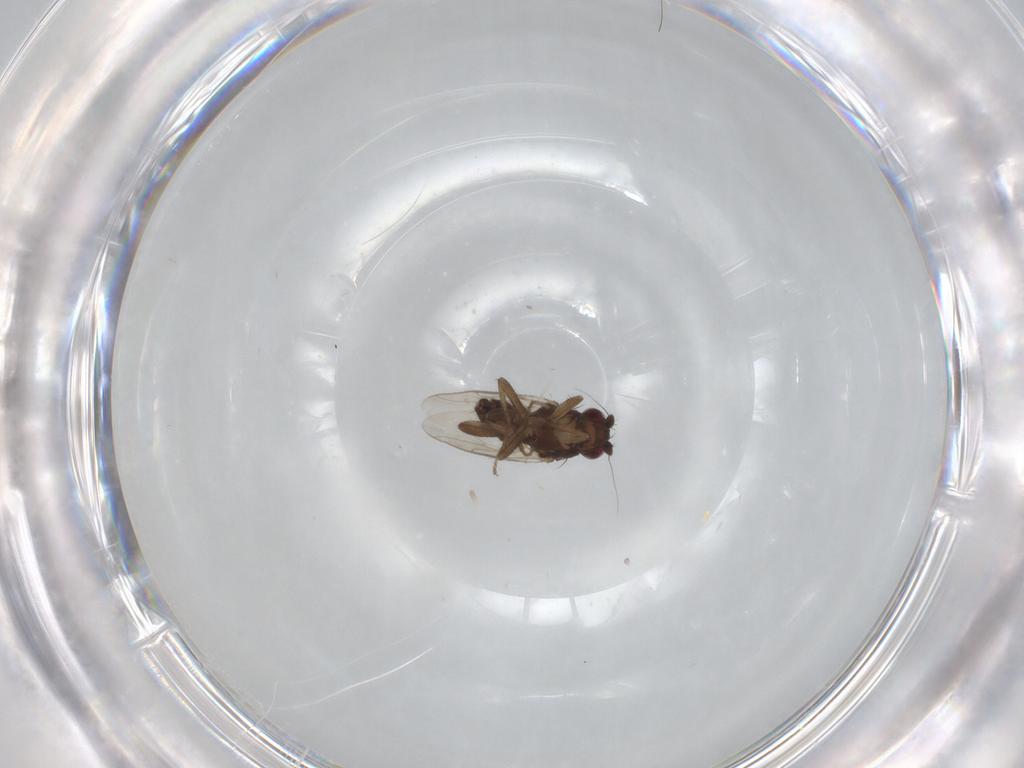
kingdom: Animalia
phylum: Arthropoda
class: Insecta
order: Diptera
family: Sphaeroceridae
